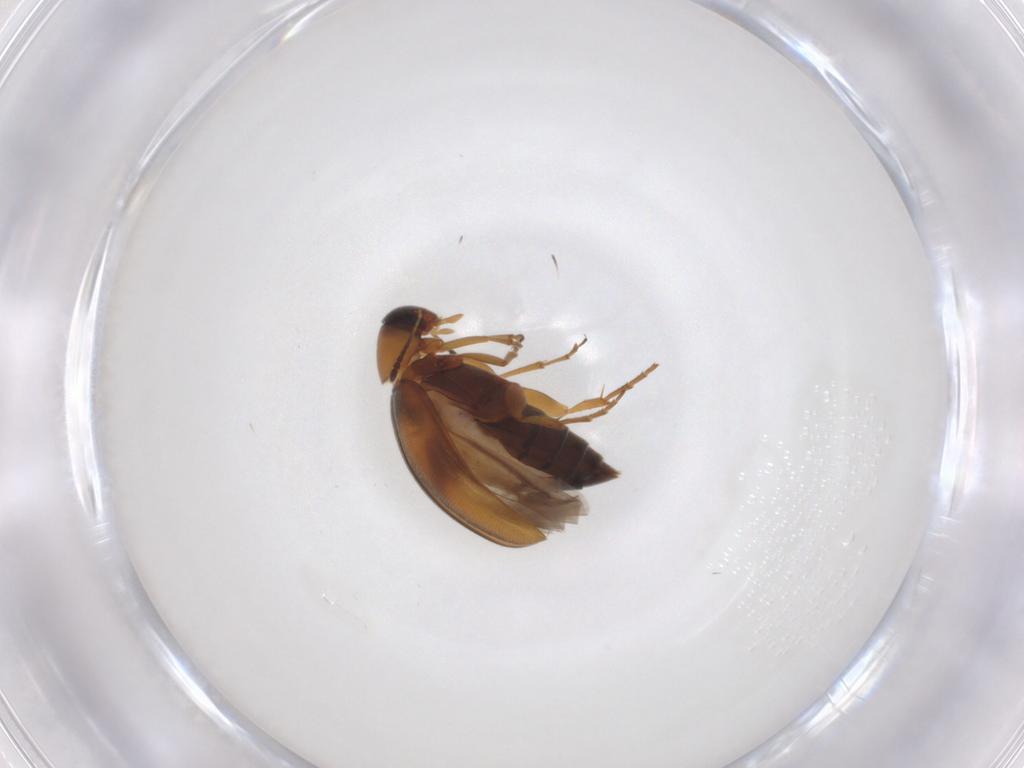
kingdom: Animalia
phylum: Arthropoda
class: Insecta
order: Coleoptera
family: Scraptiidae
